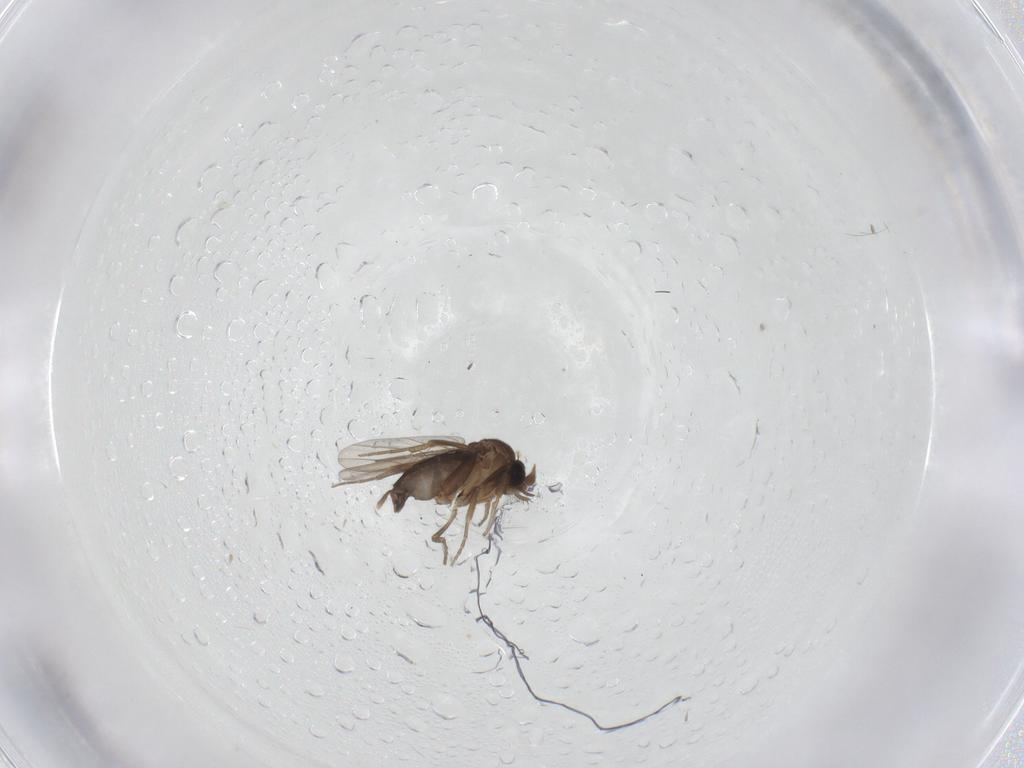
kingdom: Animalia
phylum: Arthropoda
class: Insecta
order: Diptera
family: Phoridae
